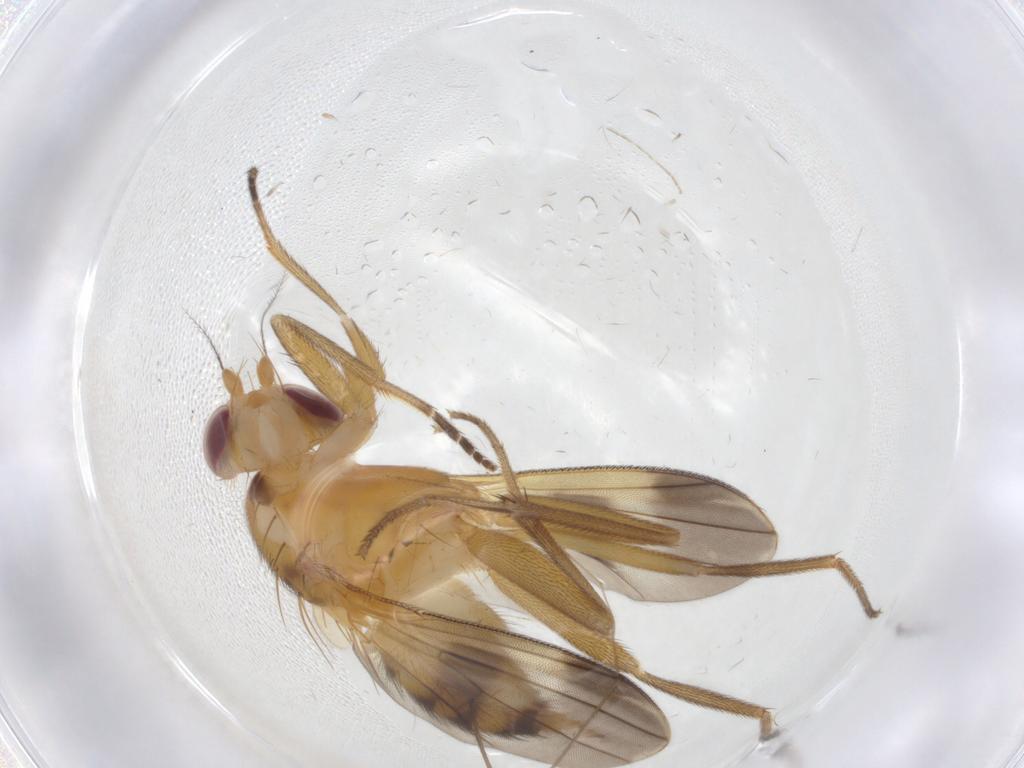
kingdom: Animalia
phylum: Arthropoda
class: Insecta
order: Diptera
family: Clusiidae
